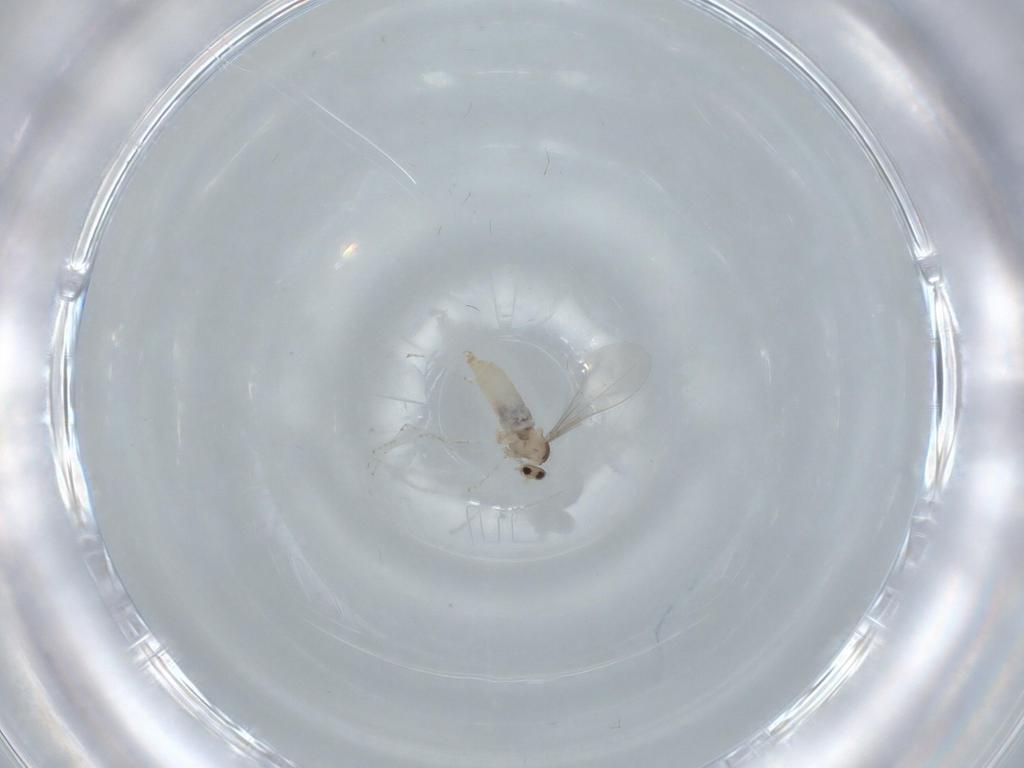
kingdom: Animalia
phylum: Arthropoda
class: Insecta
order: Diptera
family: Cecidomyiidae
